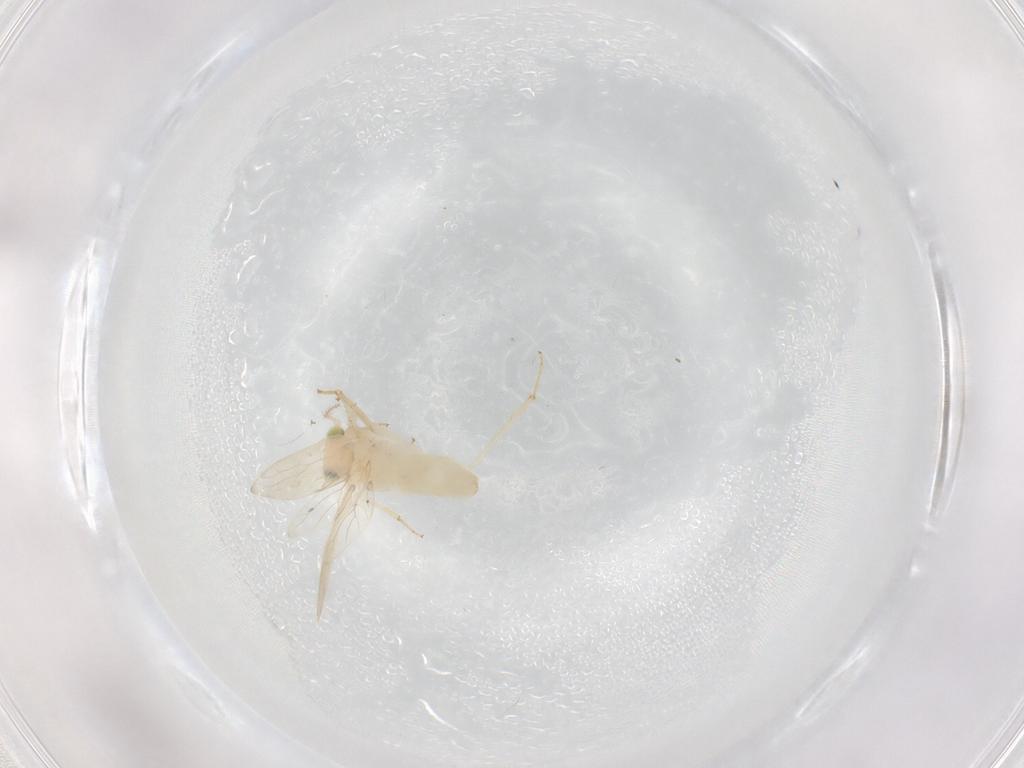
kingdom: Animalia
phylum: Arthropoda
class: Insecta
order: Psocodea
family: Lepidopsocidae
